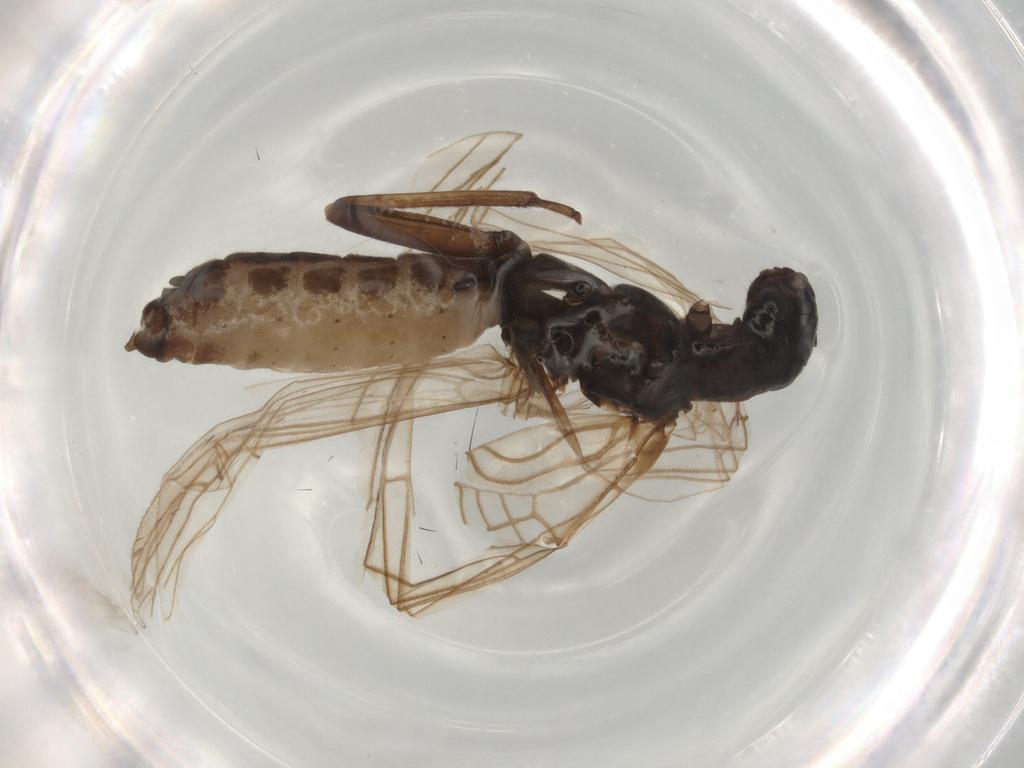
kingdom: Animalia
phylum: Arthropoda
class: Insecta
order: Plecoptera
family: Leuctridae
